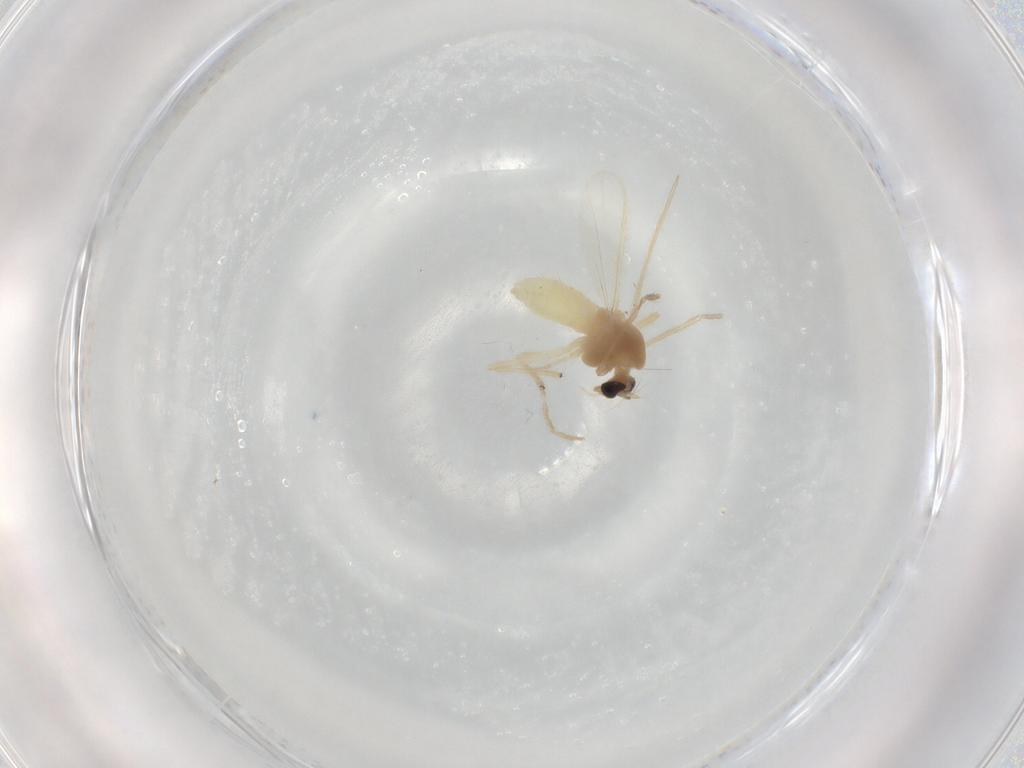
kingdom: Animalia
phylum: Arthropoda
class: Insecta
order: Diptera
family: Chironomidae
